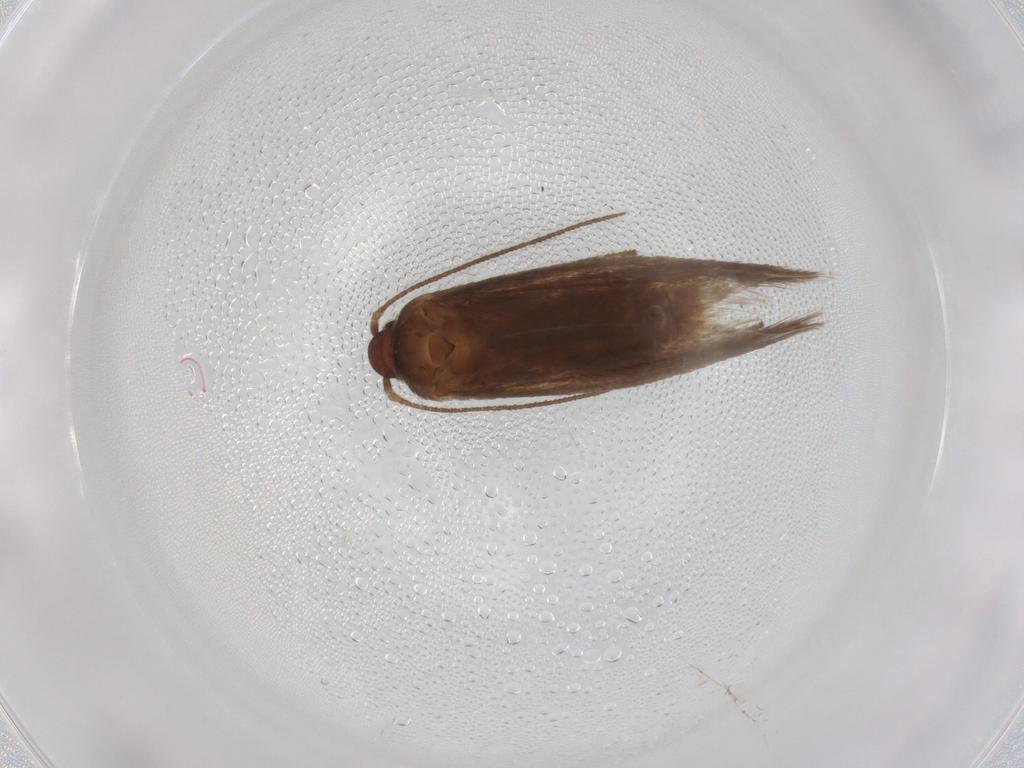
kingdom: Animalia
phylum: Arthropoda
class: Insecta
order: Lepidoptera
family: Limacodidae
